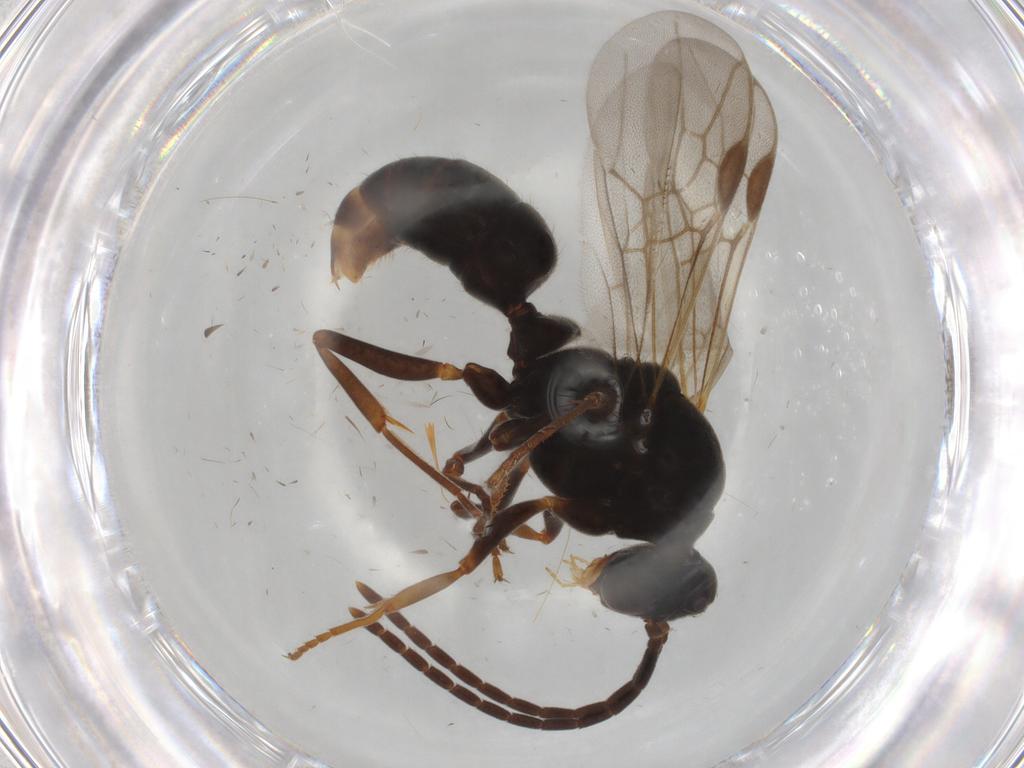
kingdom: Animalia
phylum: Arthropoda
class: Insecta
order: Hymenoptera
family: Formicidae
